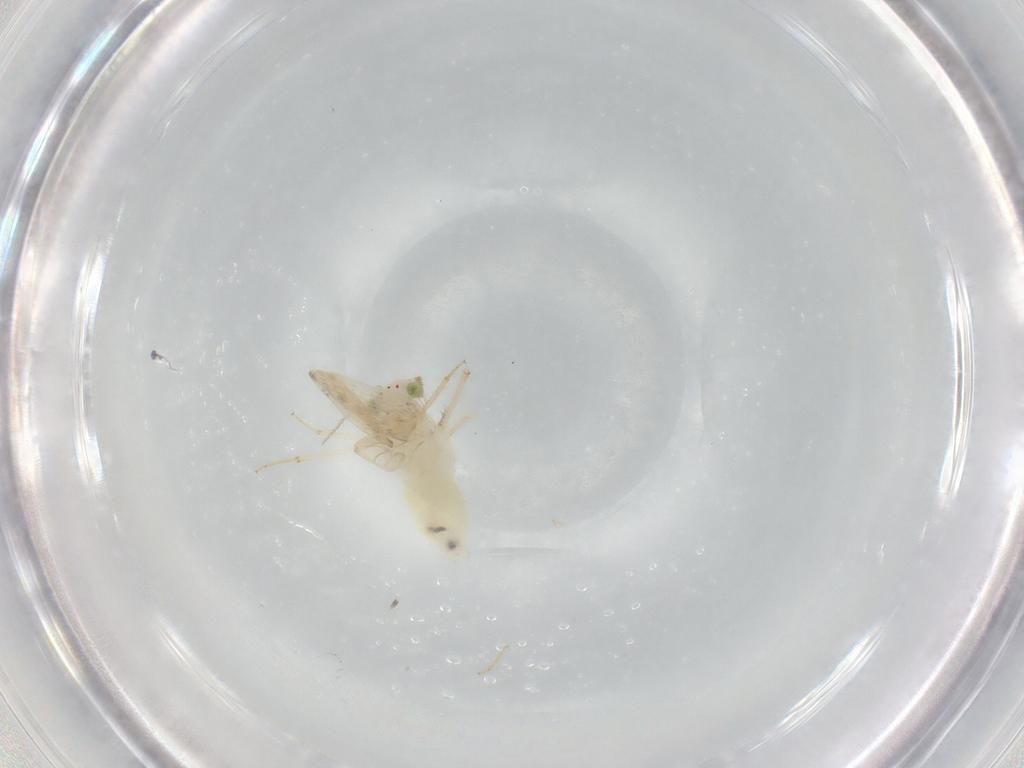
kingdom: Animalia
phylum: Arthropoda
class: Insecta
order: Psocodea
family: Lepidopsocidae
